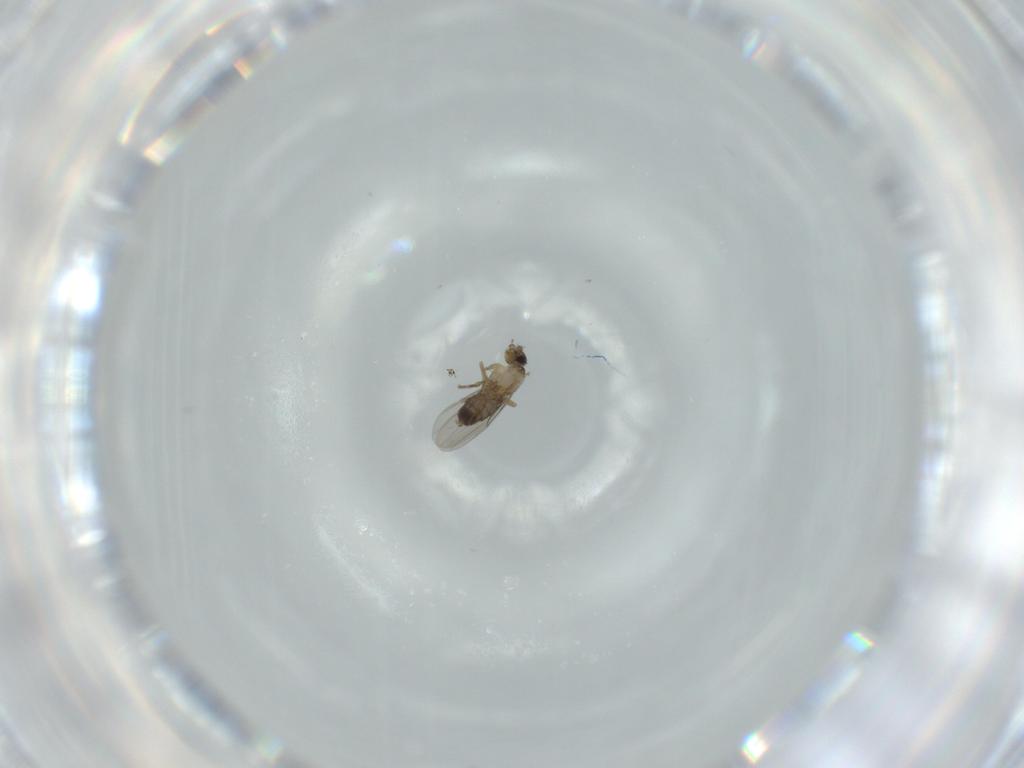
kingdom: Animalia
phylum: Arthropoda
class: Insecta
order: Diptera
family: Phoridae
